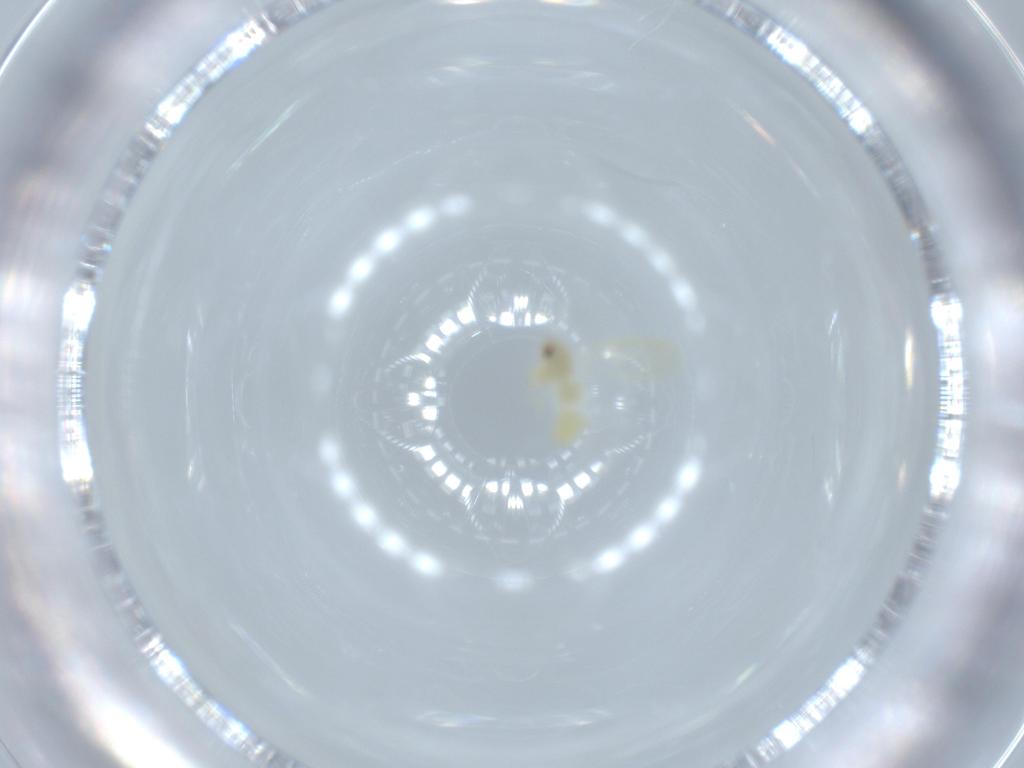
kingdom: Animalia
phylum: Arthropoda
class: Insecta
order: Hemiptera
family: Aleyrodidae
